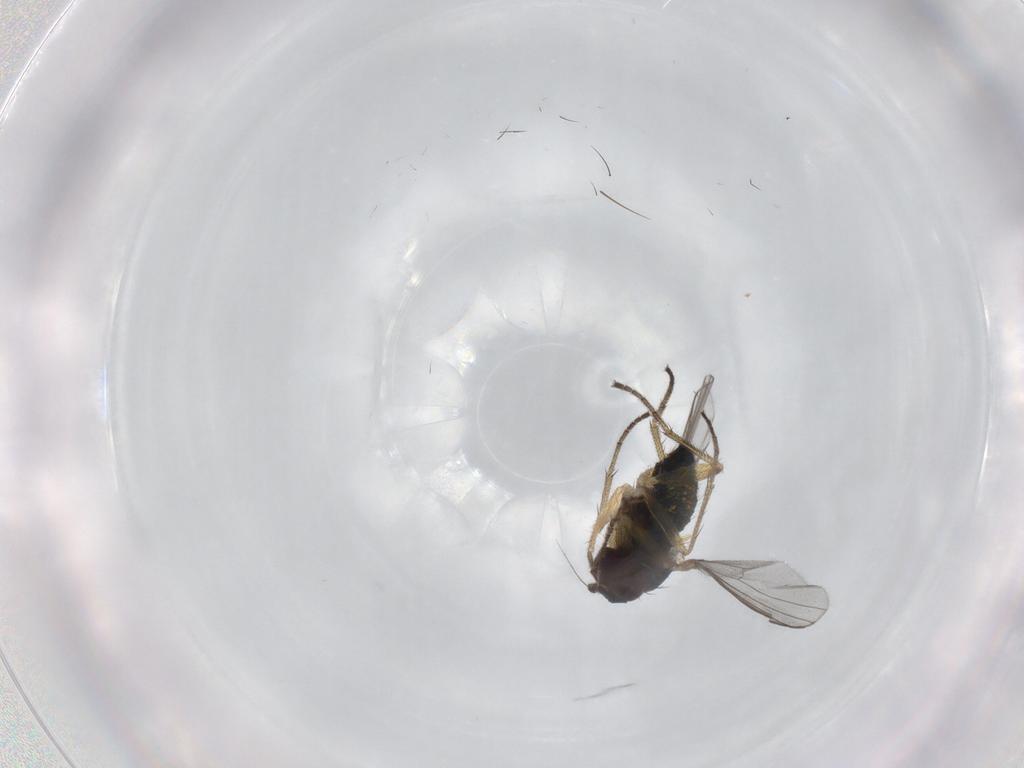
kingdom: Animalia
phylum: Arthropoda
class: Insecta
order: Diptera
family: Dolichopodidae
